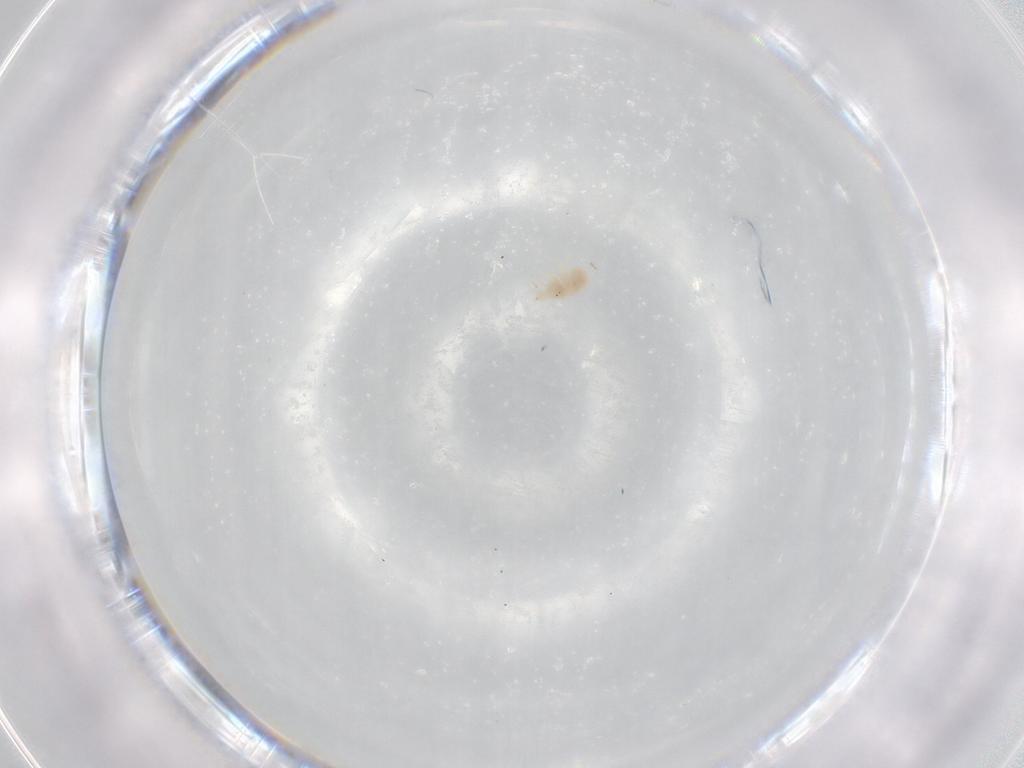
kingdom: Animalia
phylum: Arthropoda
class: Arachnida
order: Trombidiformes
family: Bdellidae
